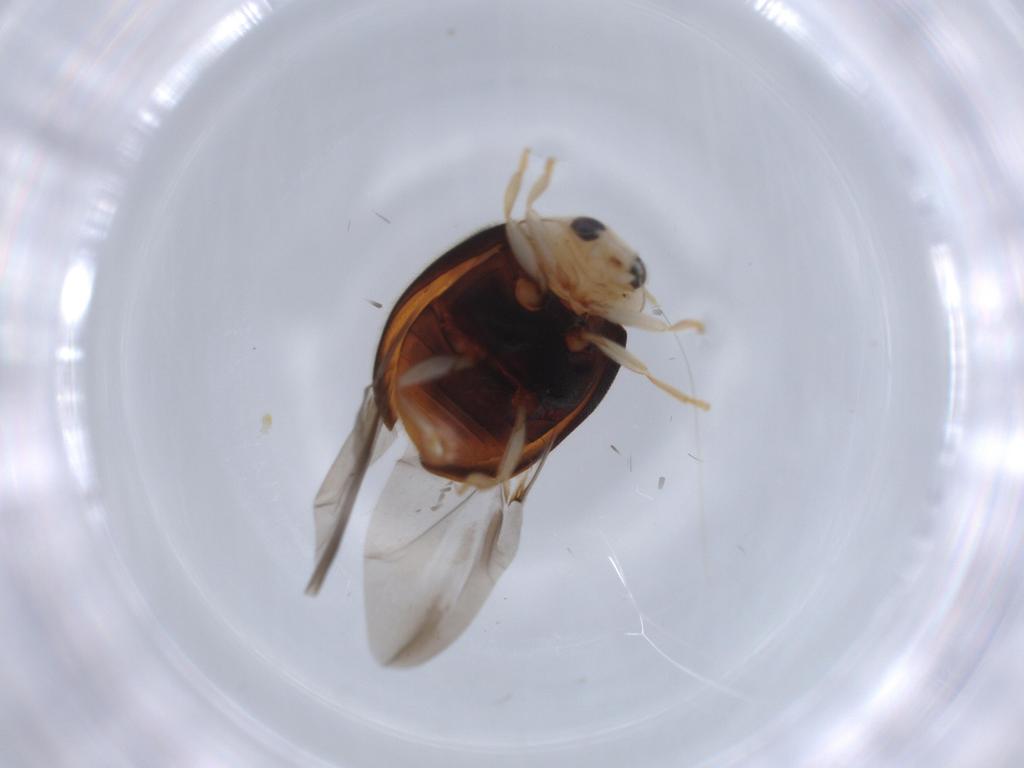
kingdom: Animalia
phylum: Arthropoda
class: Insecta
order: Coleoptera
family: Coccinellidae
